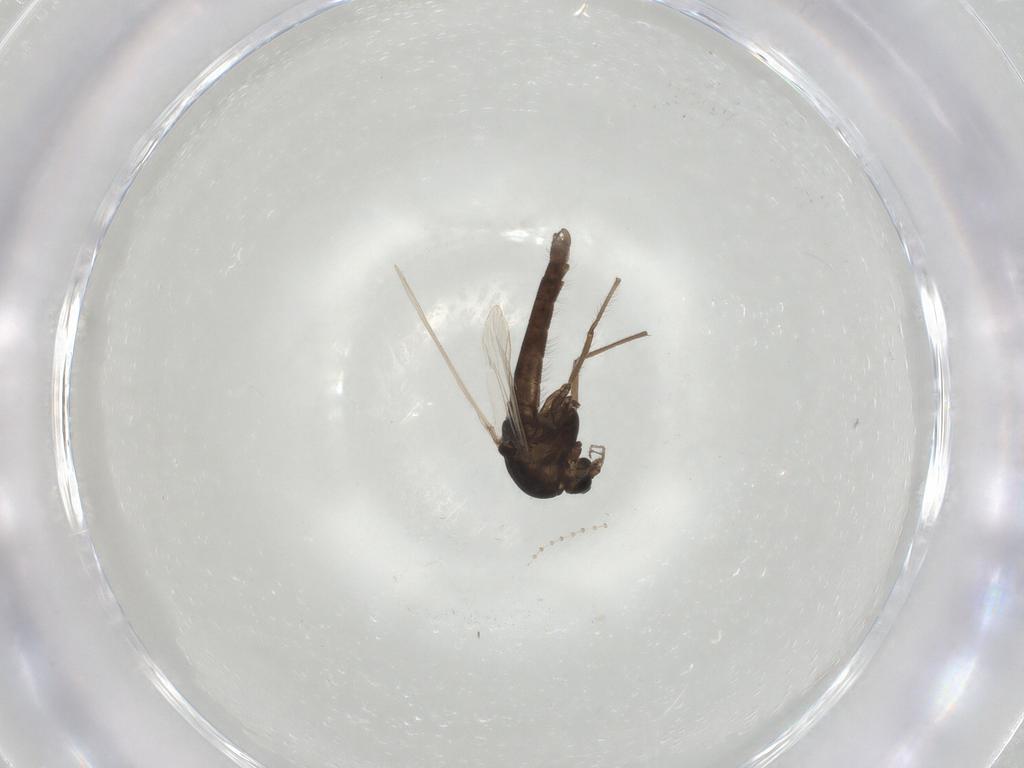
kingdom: Animalia
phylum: Arthropoda
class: Insecta
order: Diptera
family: Chironomidae
